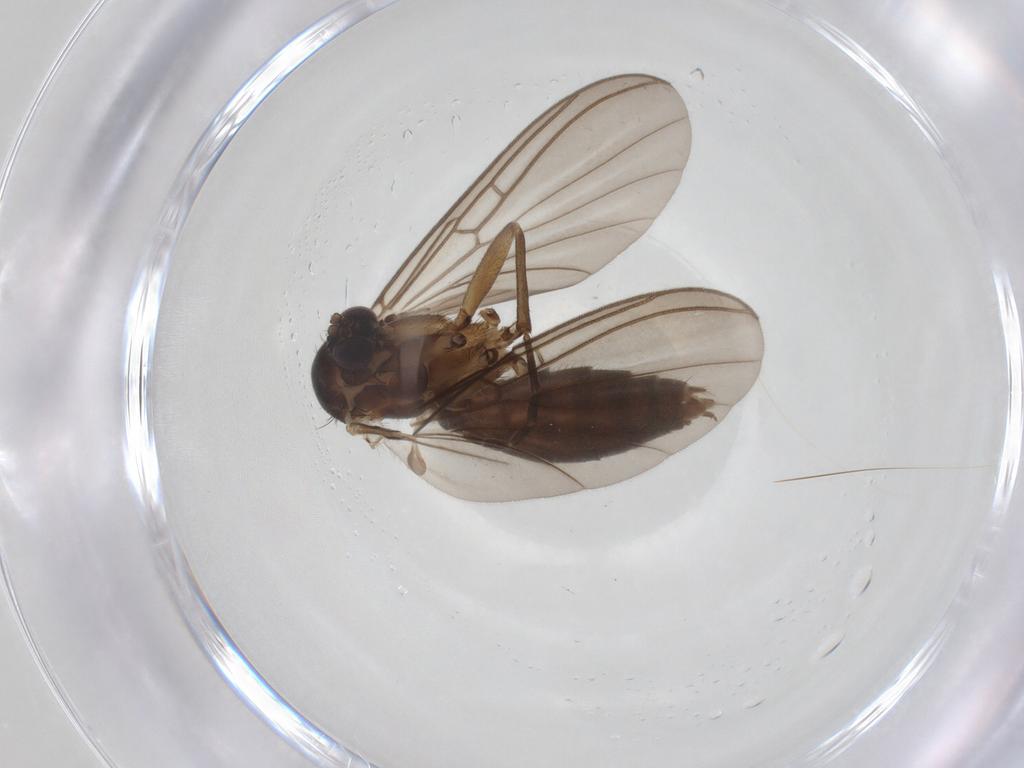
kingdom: Animalia
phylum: Arthropoda
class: Insecta
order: Diptera
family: Mycetophilidae
